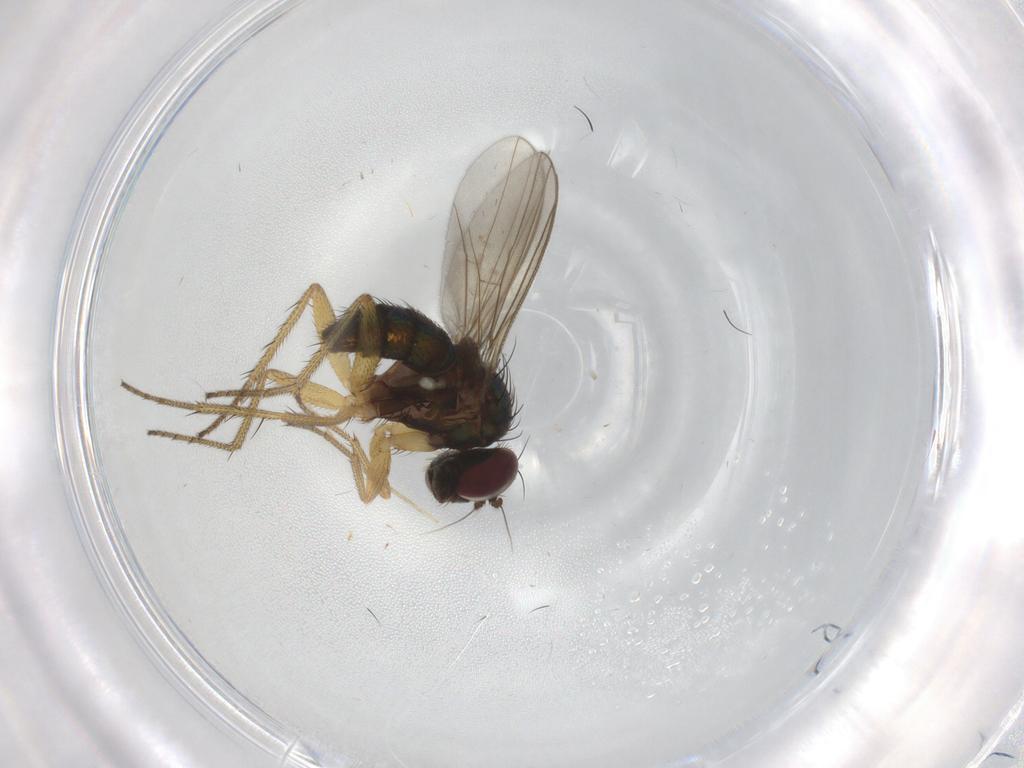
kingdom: Animalia
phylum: Arthropoda
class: Insecta
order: Diptera
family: Dolichopodidae
